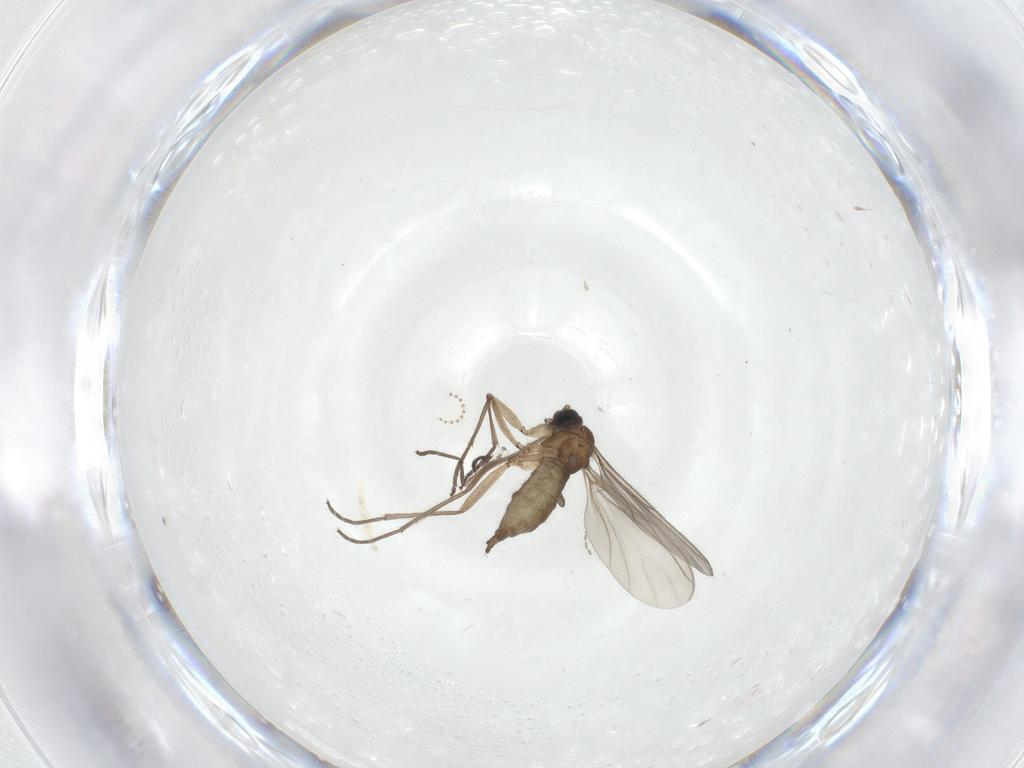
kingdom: Animalia
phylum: Arthropoda
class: Insecta
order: Diptera
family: Sciaridae
